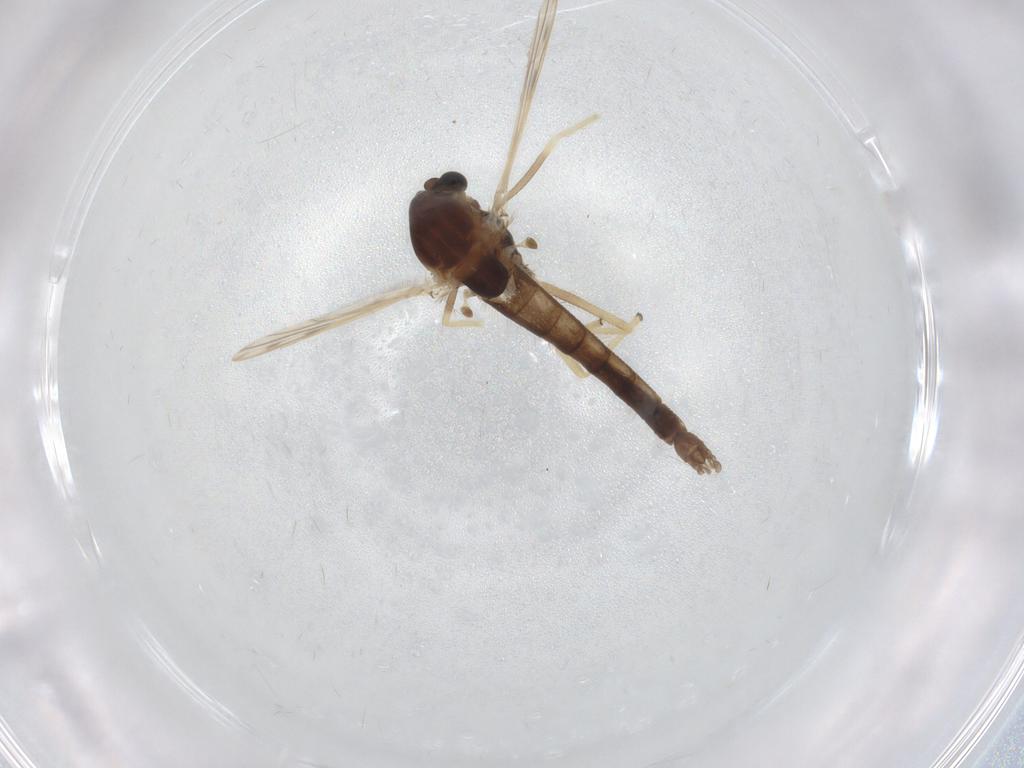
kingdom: Animalia
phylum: Arthropoda
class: Insecta
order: Diptera
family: Chironomidae
